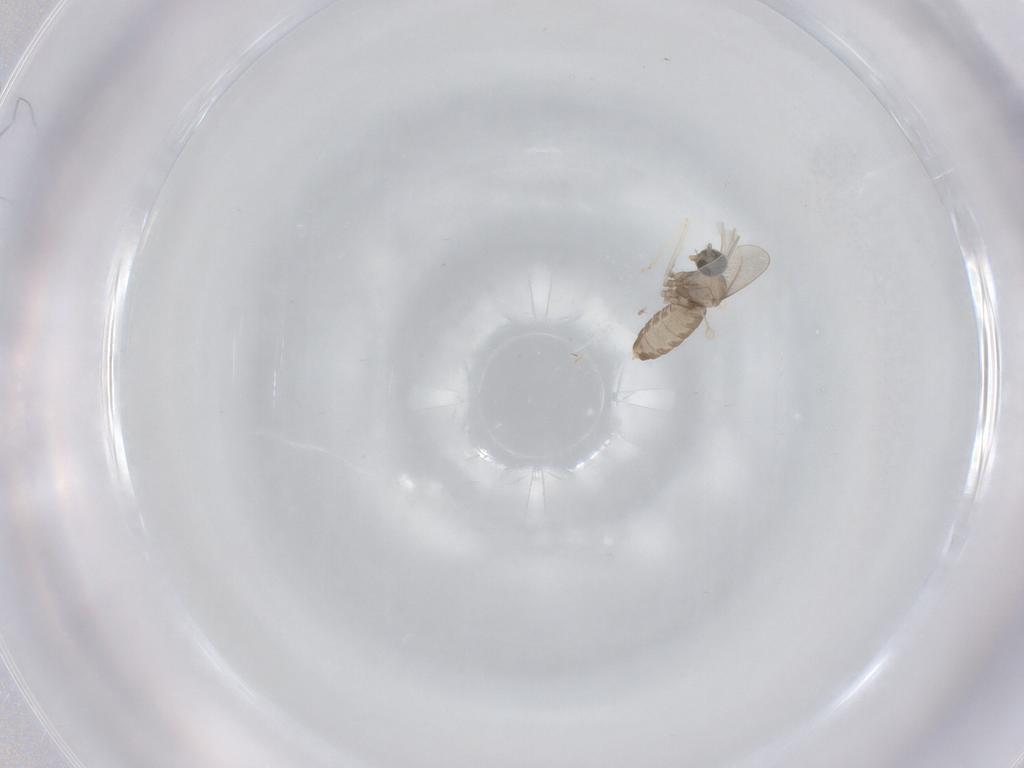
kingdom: Animalia
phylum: Arthropoda
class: Insecta
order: Diptera
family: Cecidomyiidae
